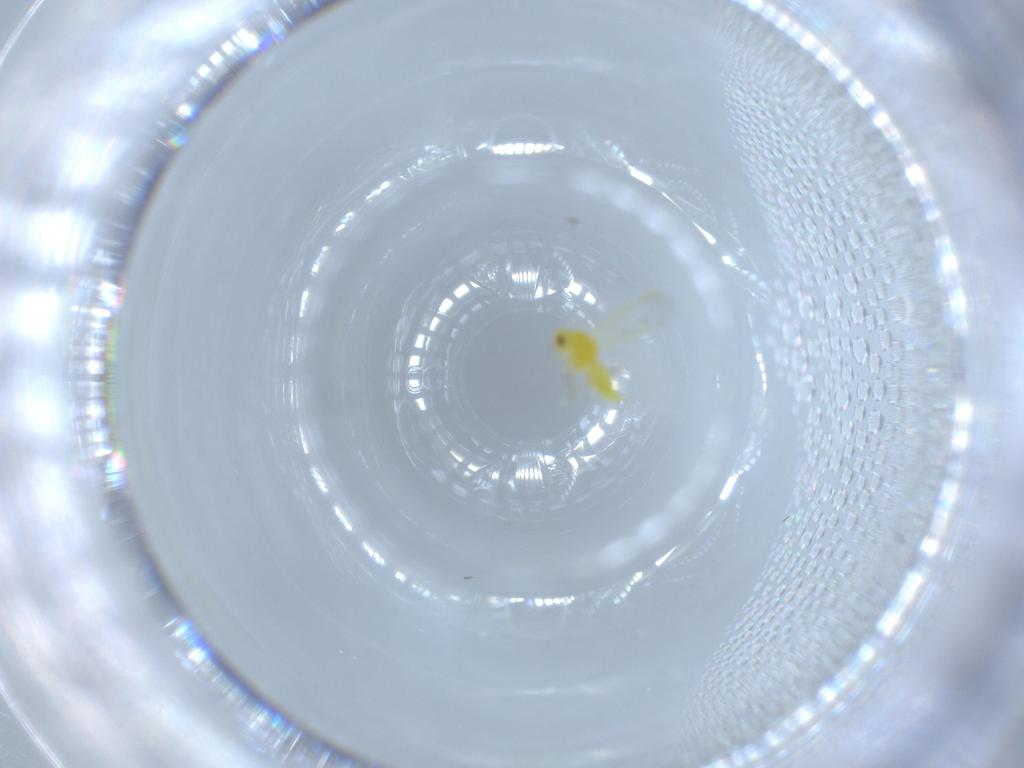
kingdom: Animalia
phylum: Arthropoda
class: Insecta
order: Hemiptera
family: Aleyrodidae
